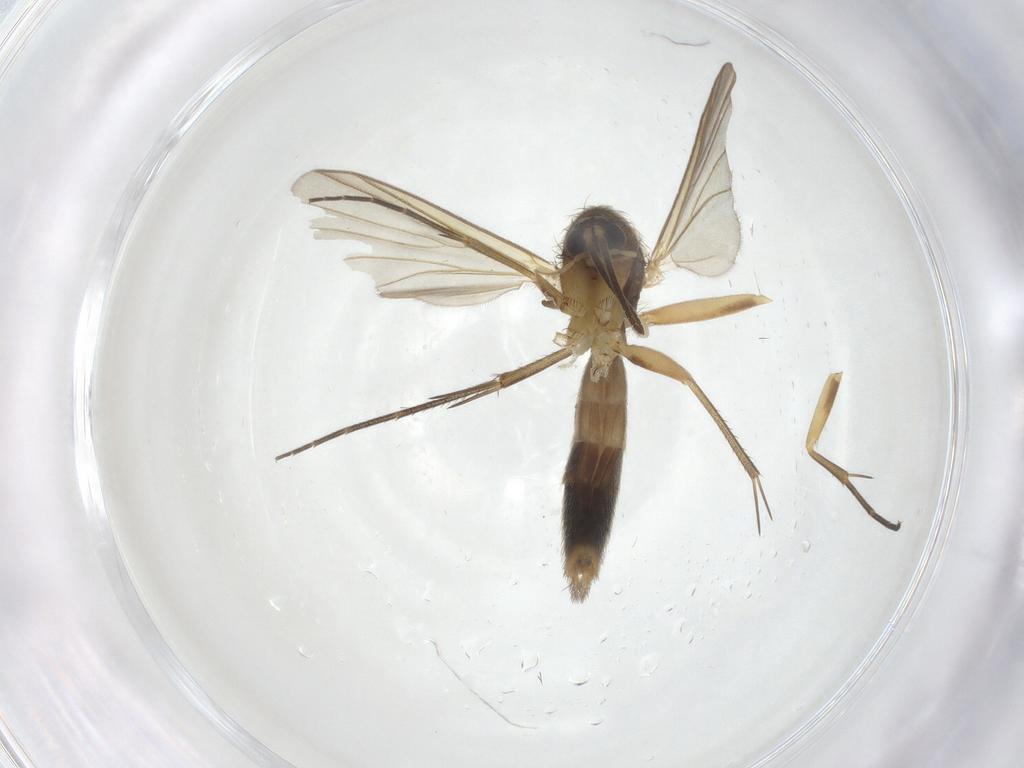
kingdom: Animalia
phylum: Arthropoda
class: Insecta
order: Diptera
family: Mycetophilidae
